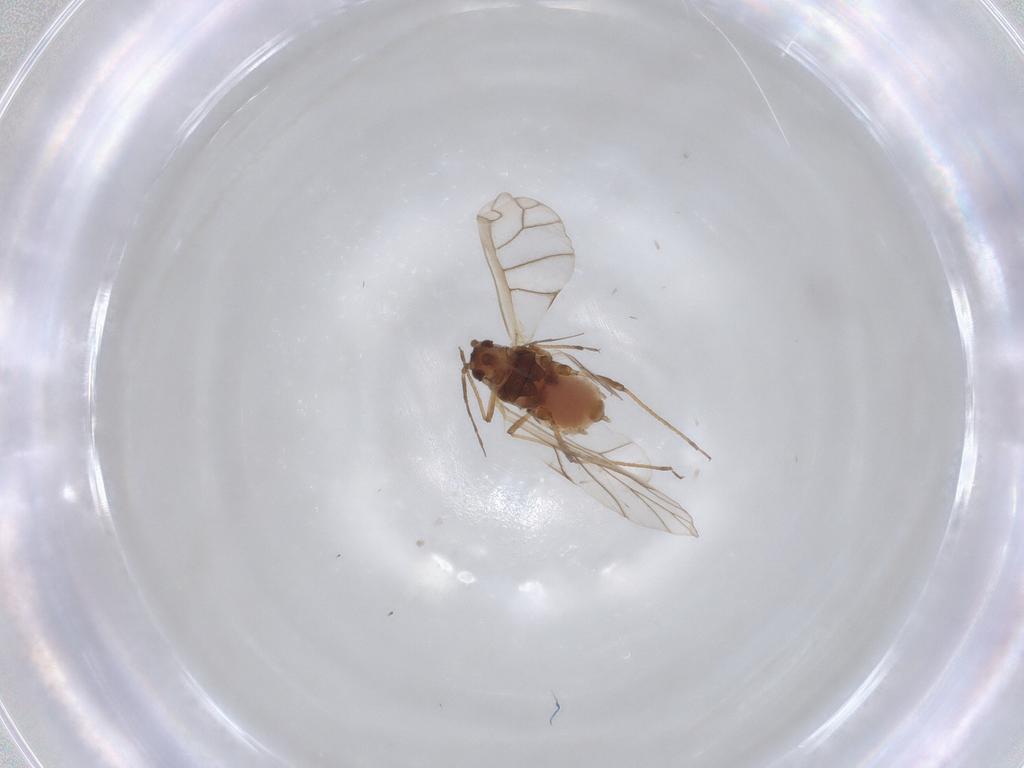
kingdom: Animalia
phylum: Arthropoda
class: Insecta
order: Hemiptera
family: Aphididae
